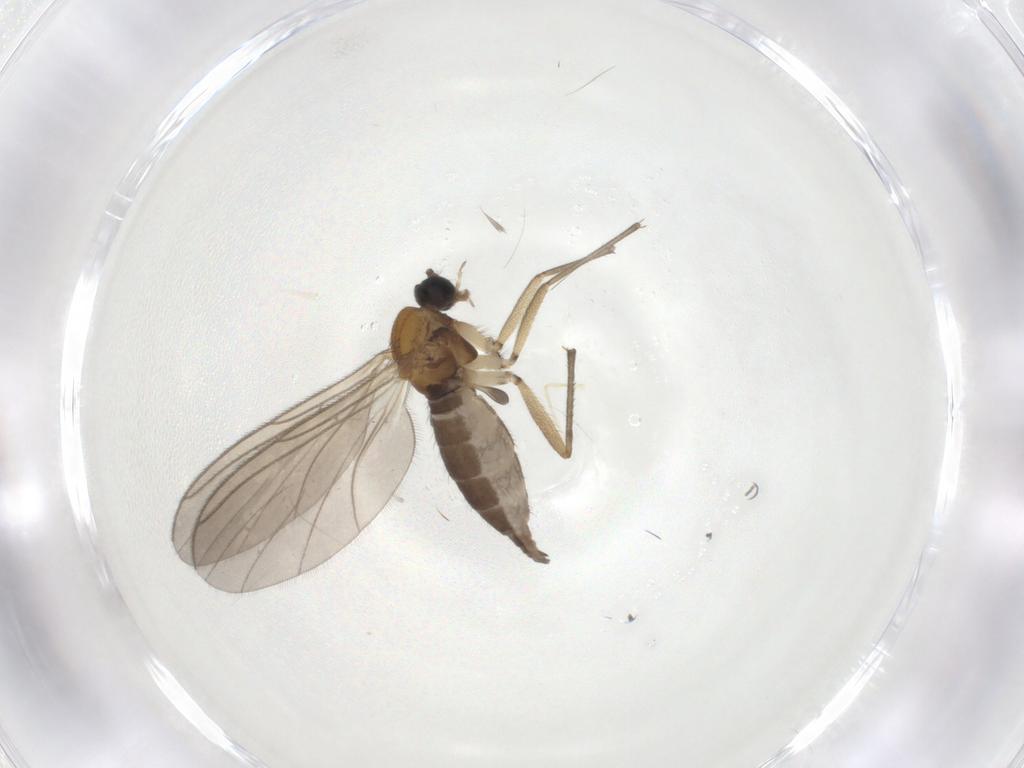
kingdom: Animalia
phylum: Arthropoda
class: Insecta
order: Diptera
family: Sciaridae
